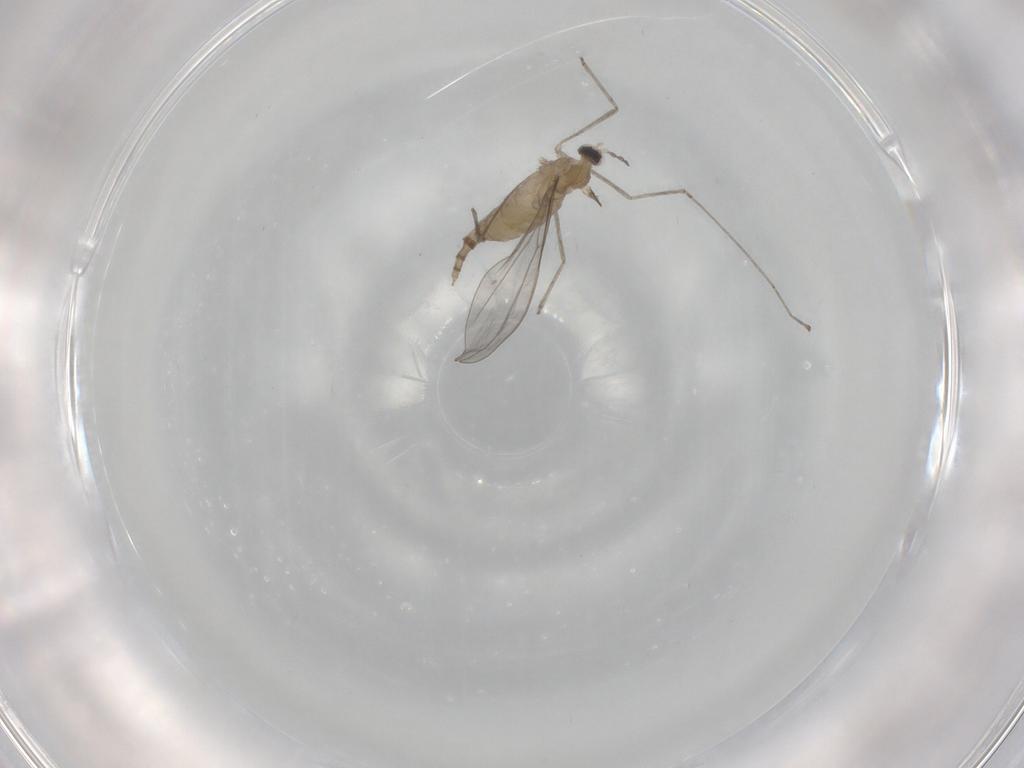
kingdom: Animalia
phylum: Arthropoda
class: Insecta
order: Diptera
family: Cecidomyiidae
